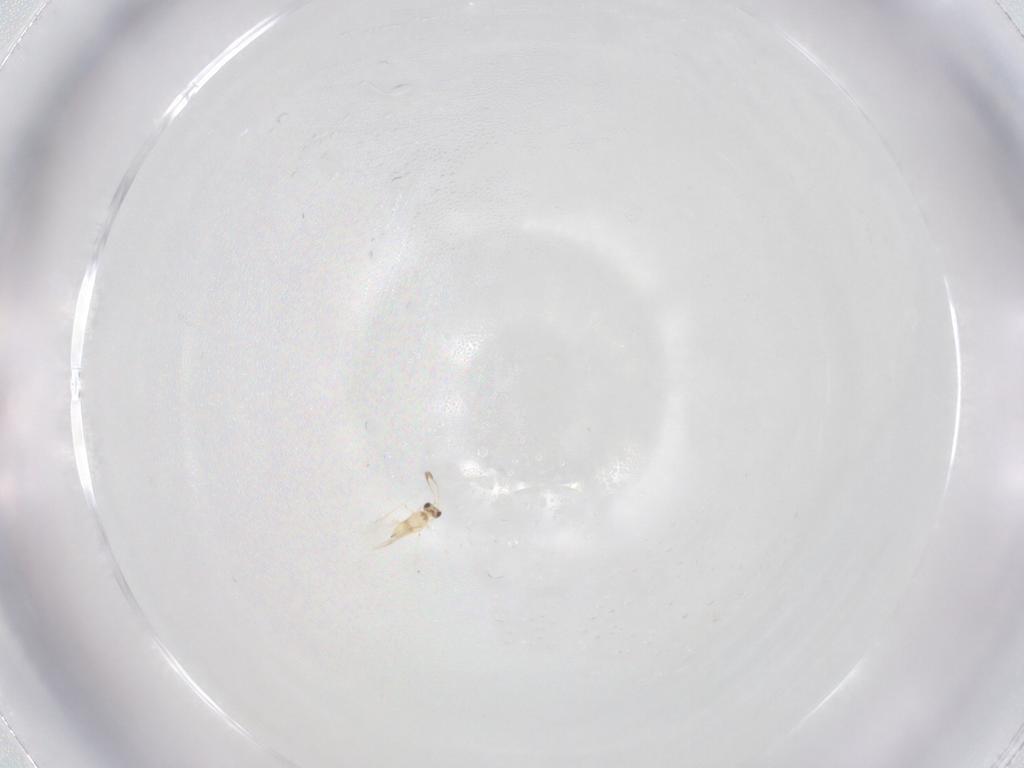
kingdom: Animalia
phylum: Arthropoda
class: Insecta
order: Hymenoptera
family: Mymaridae
